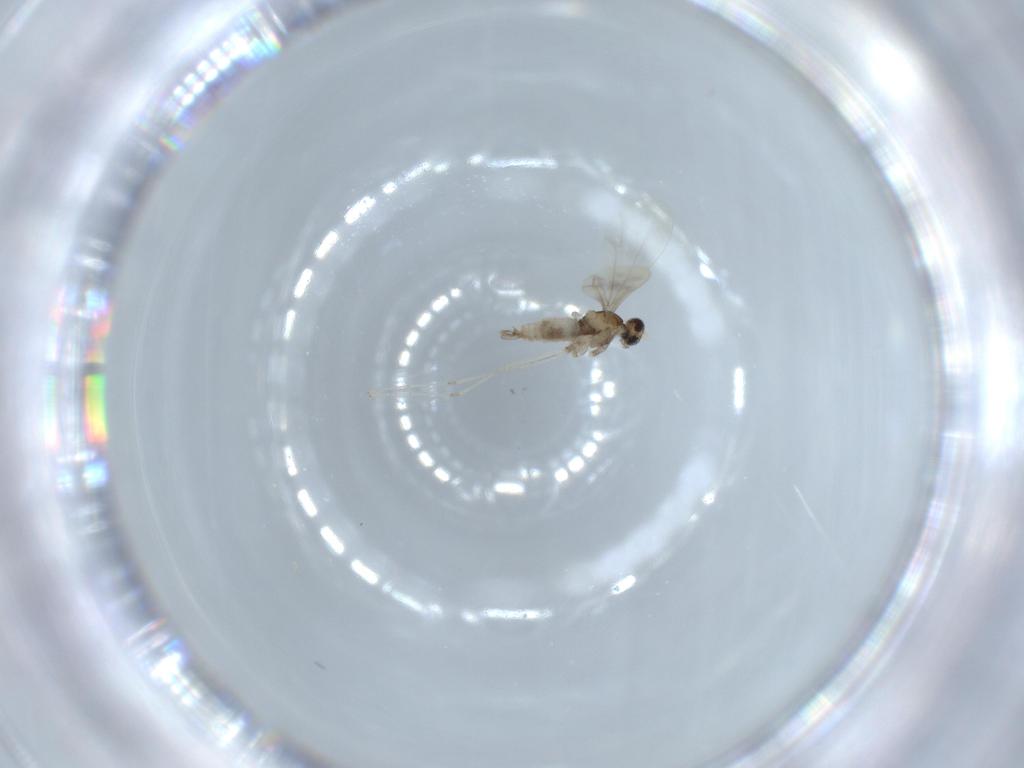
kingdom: Animalia
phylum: Arthropoda
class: Insecta
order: Diptera
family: Cecidomyiidae
